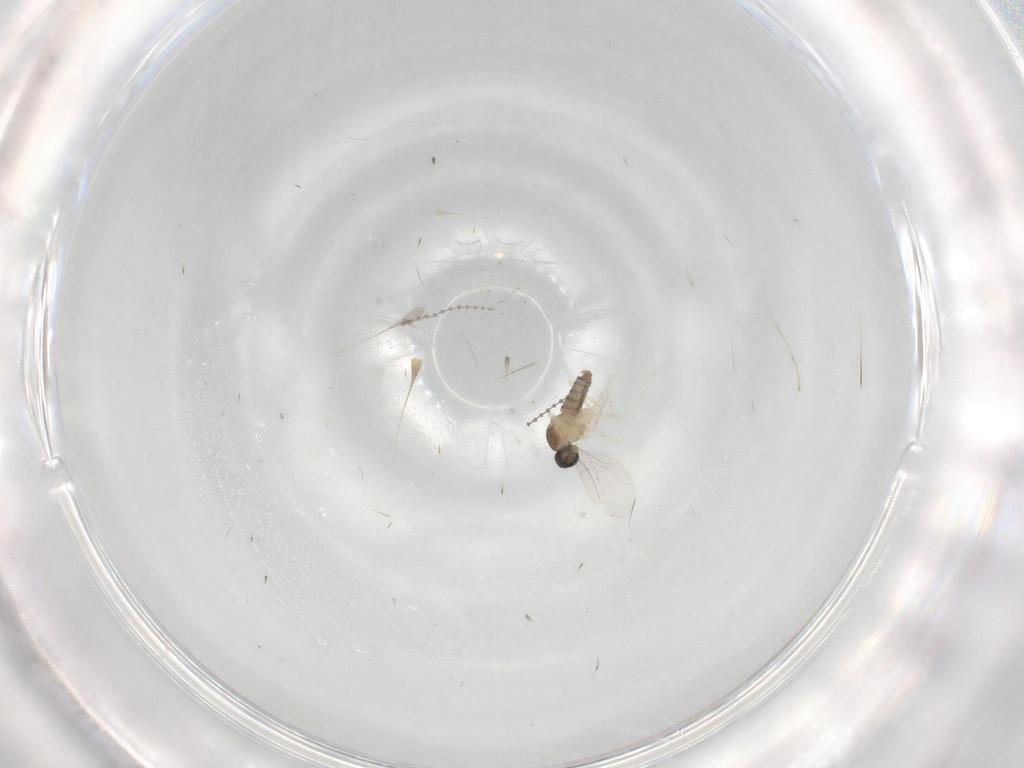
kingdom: Animalia
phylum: Arthropoda
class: Insecta
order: Diptera
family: Cecidomyiidae
